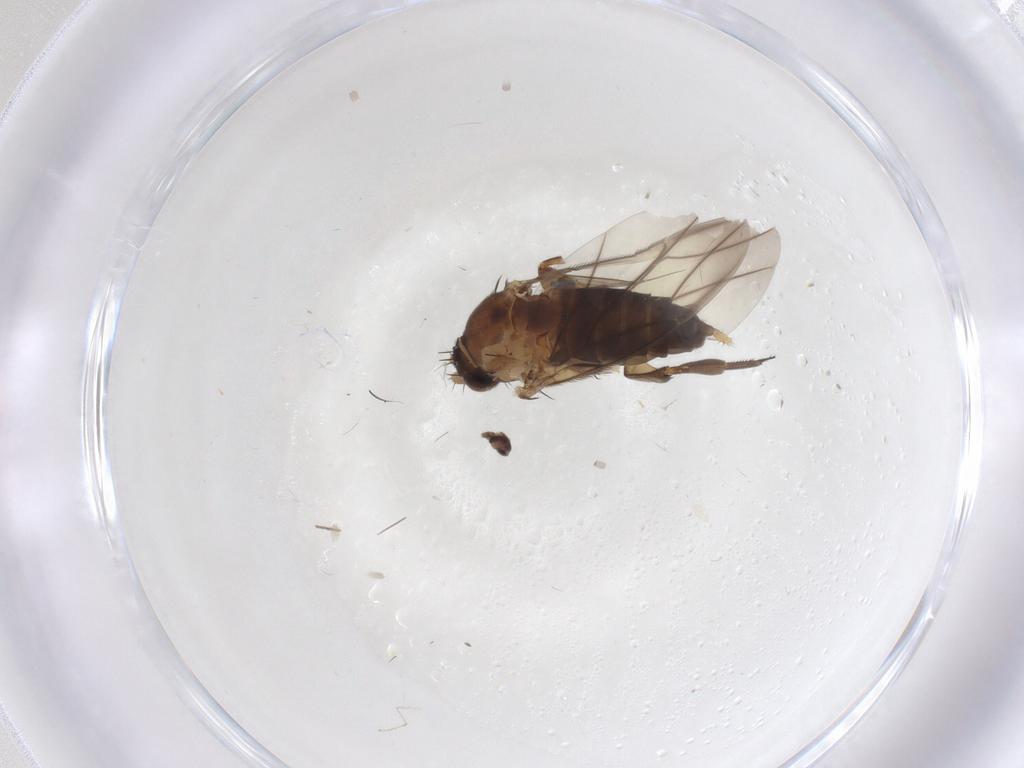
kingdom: Animalia
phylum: Arthropoda
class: Insecta
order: Diptera
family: Phoridae
